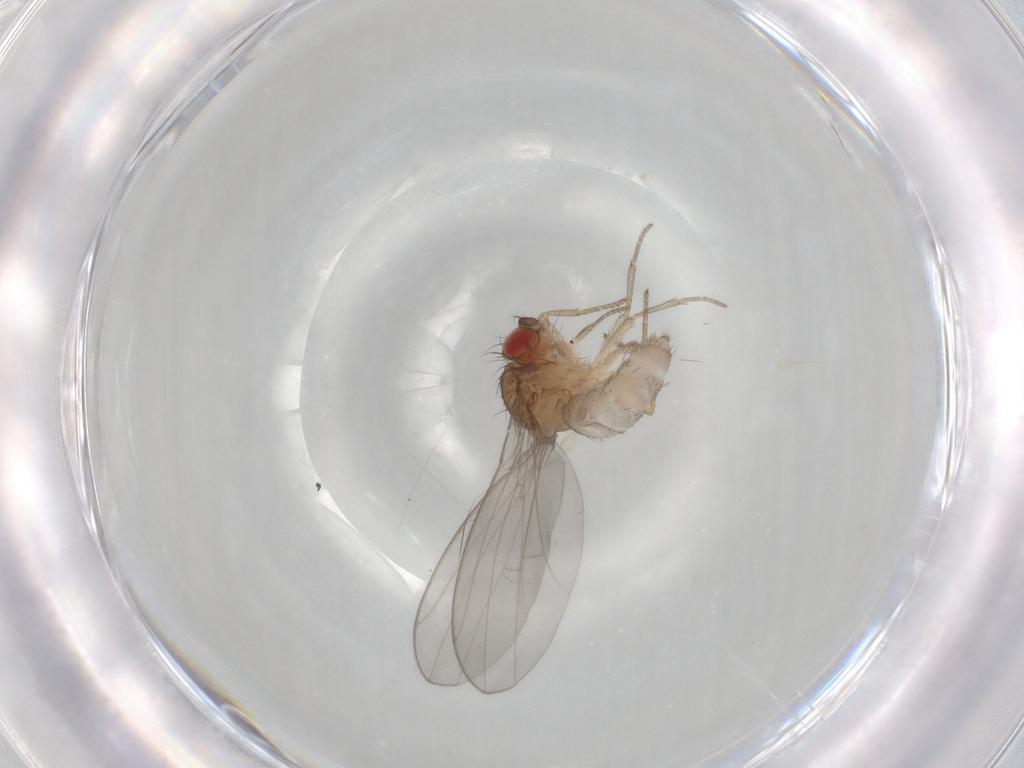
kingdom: Animalia
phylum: Arthropoda
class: Insecta
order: Diptera
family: Drosophilidae
